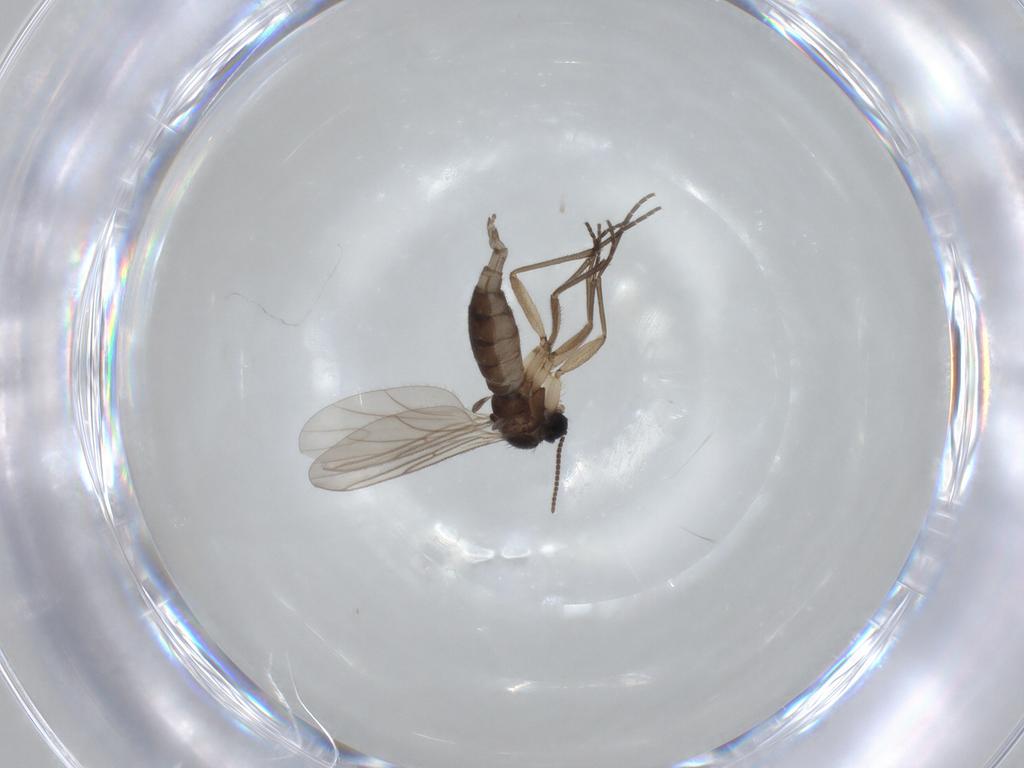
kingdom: Animalia
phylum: Arthropoda
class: Insecta
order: Diptera
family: Sciaridae
